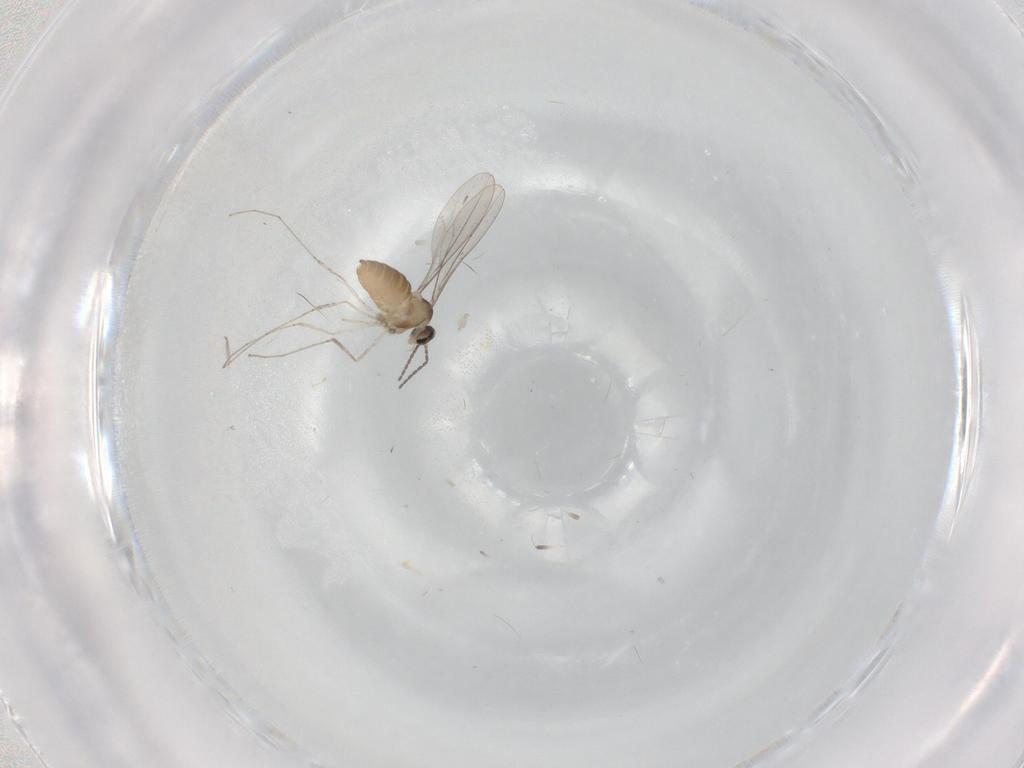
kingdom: Animalia
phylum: Arthropoda
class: Insecta
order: Diptera
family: Cecidomyiidae
